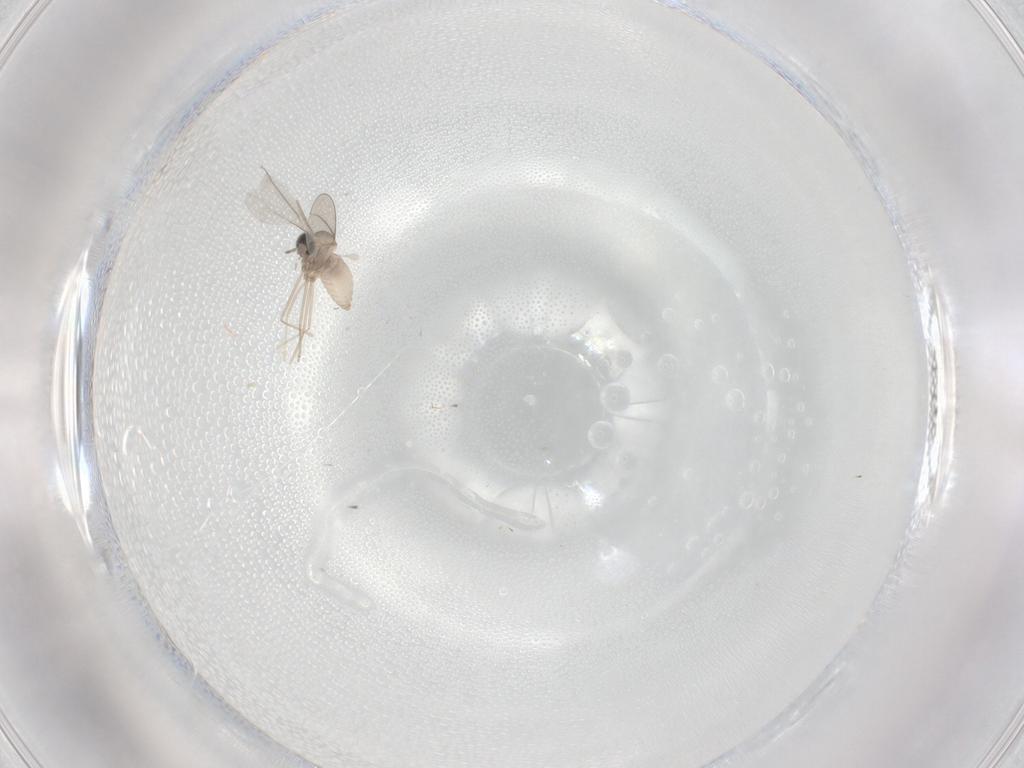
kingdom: Animalia
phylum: Arthropoda
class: Insecta
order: Diptera
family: Cecidomyiidae
